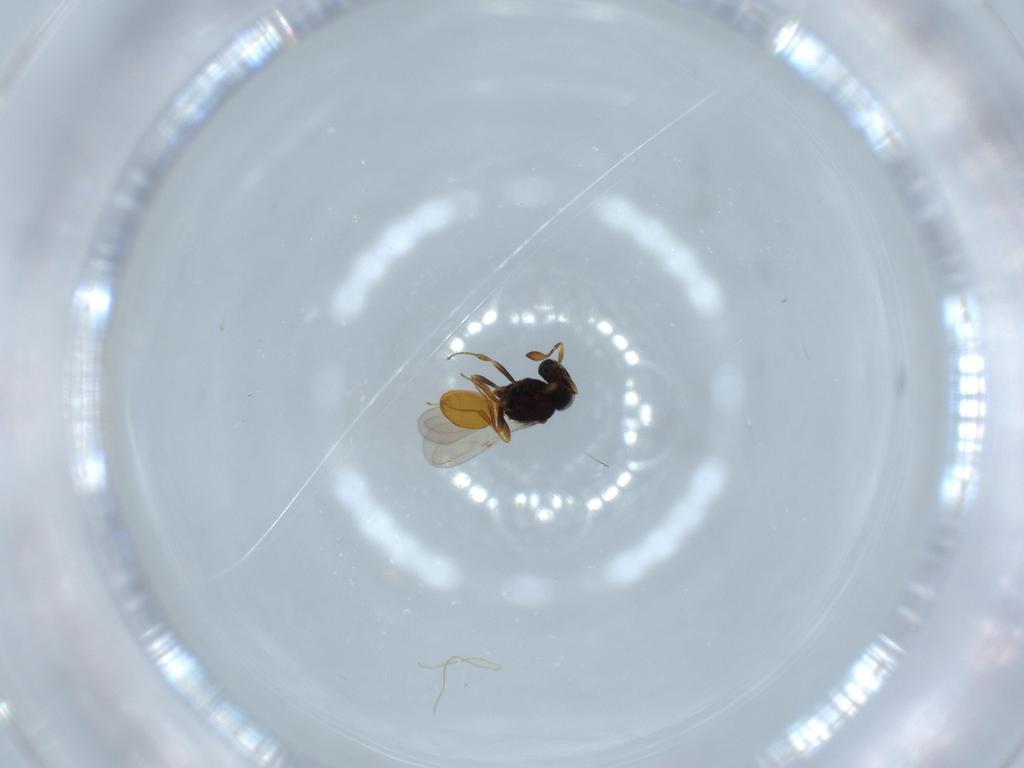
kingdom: Animalia
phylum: Arthropoda
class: Insecta
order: Hymenoptera
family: Scelionidae
